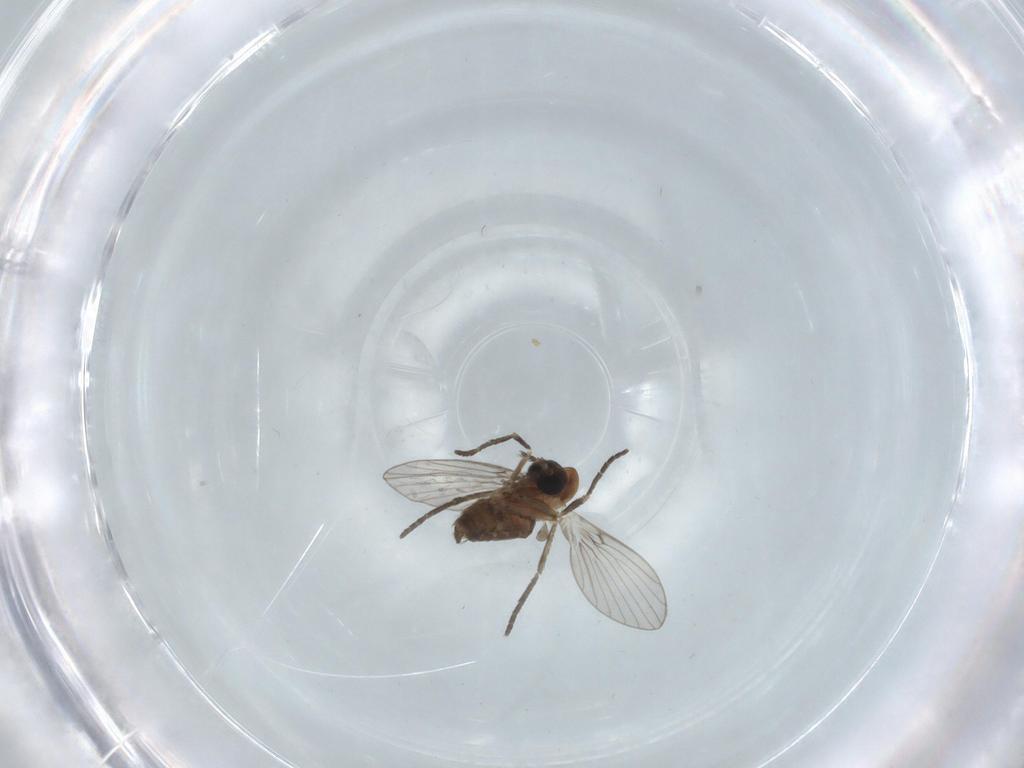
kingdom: Animalia
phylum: Arthropoda
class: Insecta
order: Diptera
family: Psychodidae
